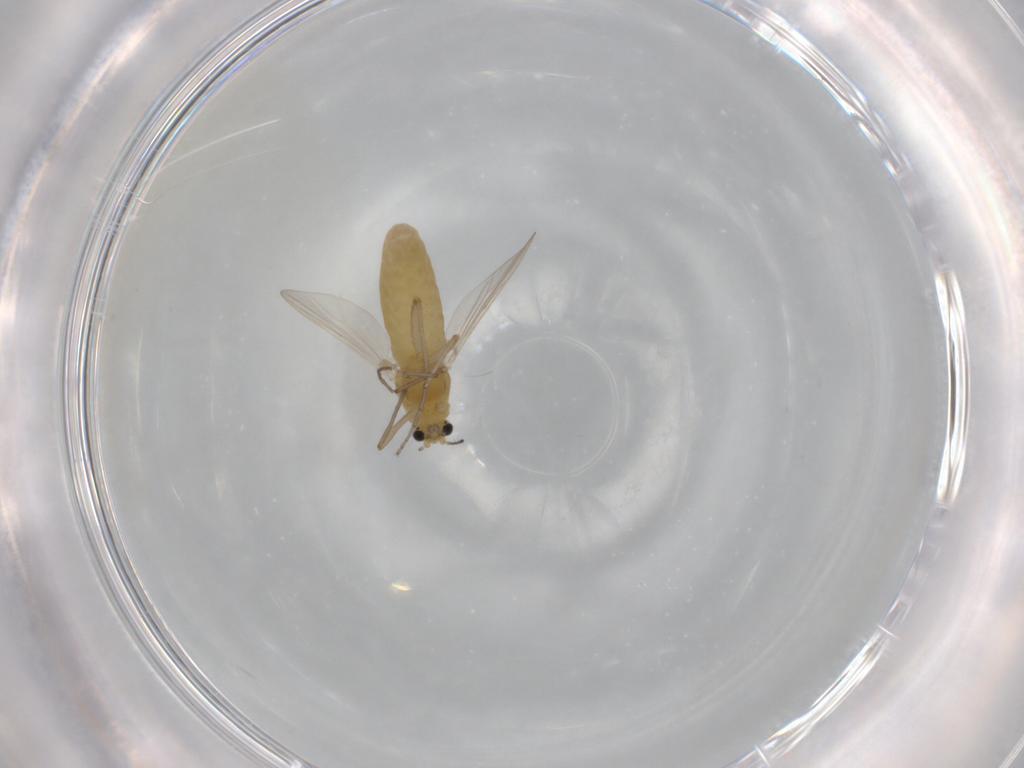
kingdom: Animalia
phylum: Arthropoda
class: Insecta
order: Diptera
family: Chironomidae
